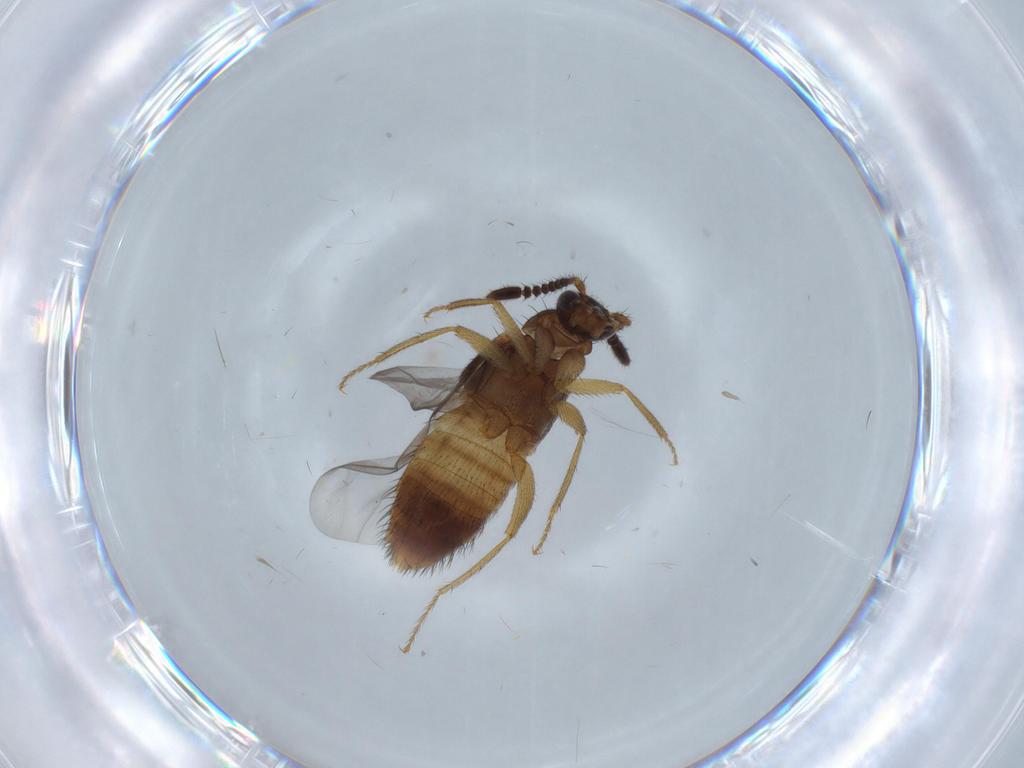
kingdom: Animalia
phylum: Arthropoda
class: Insecta
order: Coleoptera
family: Staphylinidae
